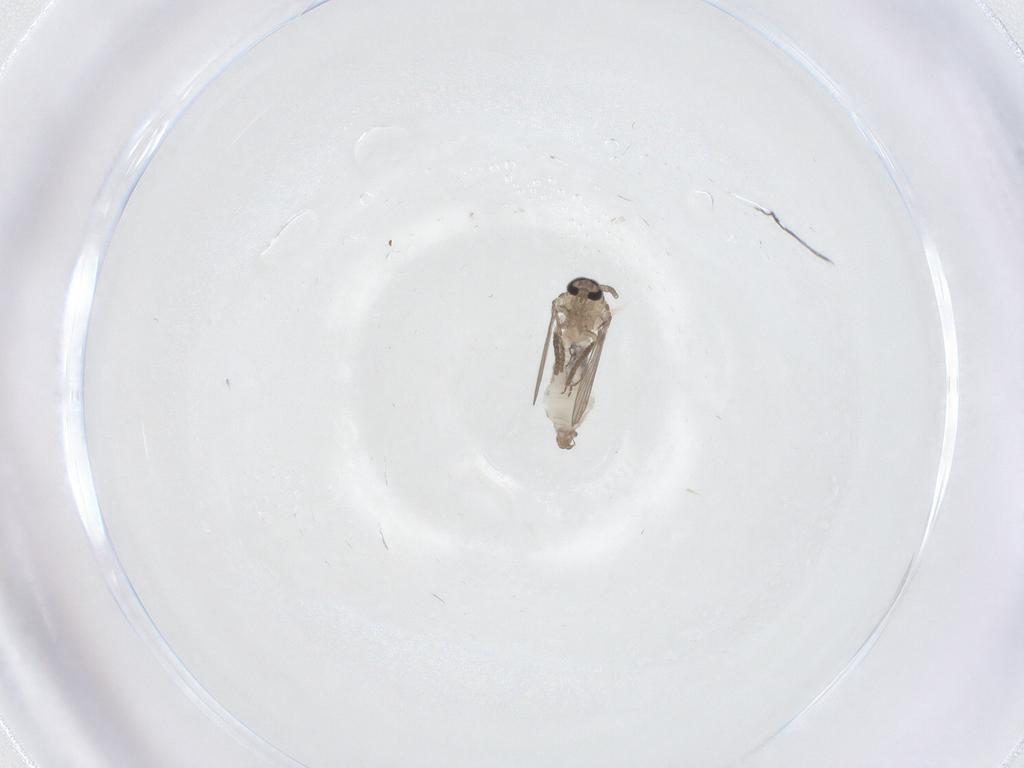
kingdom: Animalia
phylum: Arthropoda
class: Insecta
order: Diptera
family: Psychodidae
